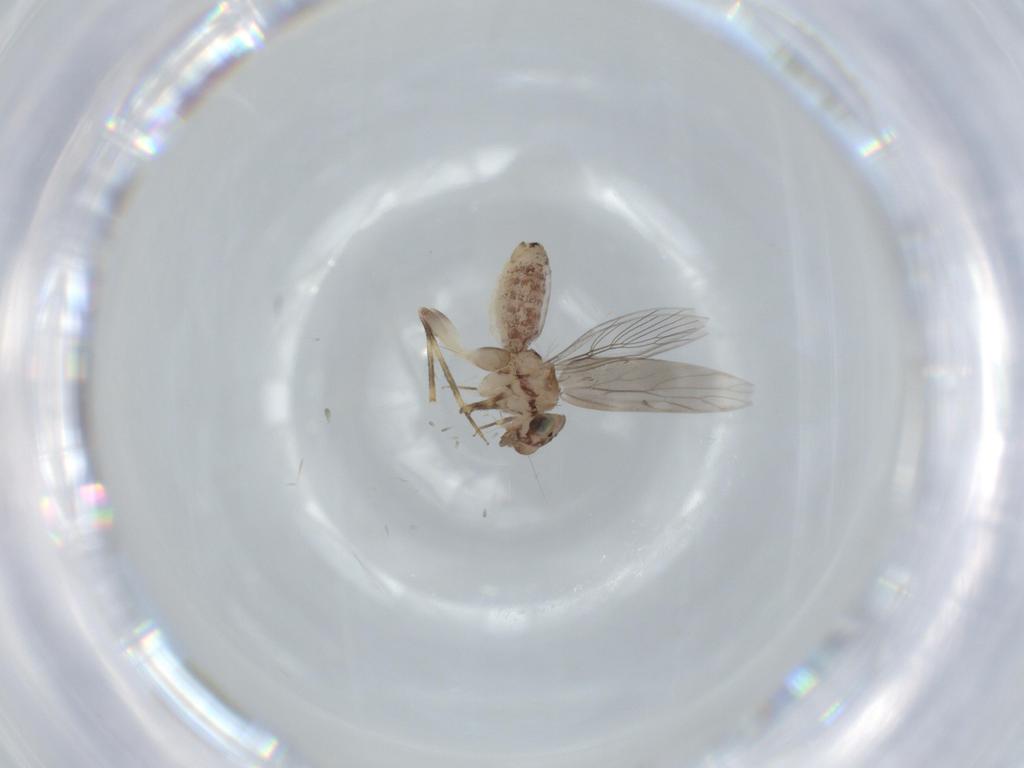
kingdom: Animalia
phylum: Arthropoda
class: Insecta
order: Psocodea
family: Lepidopsocidae
